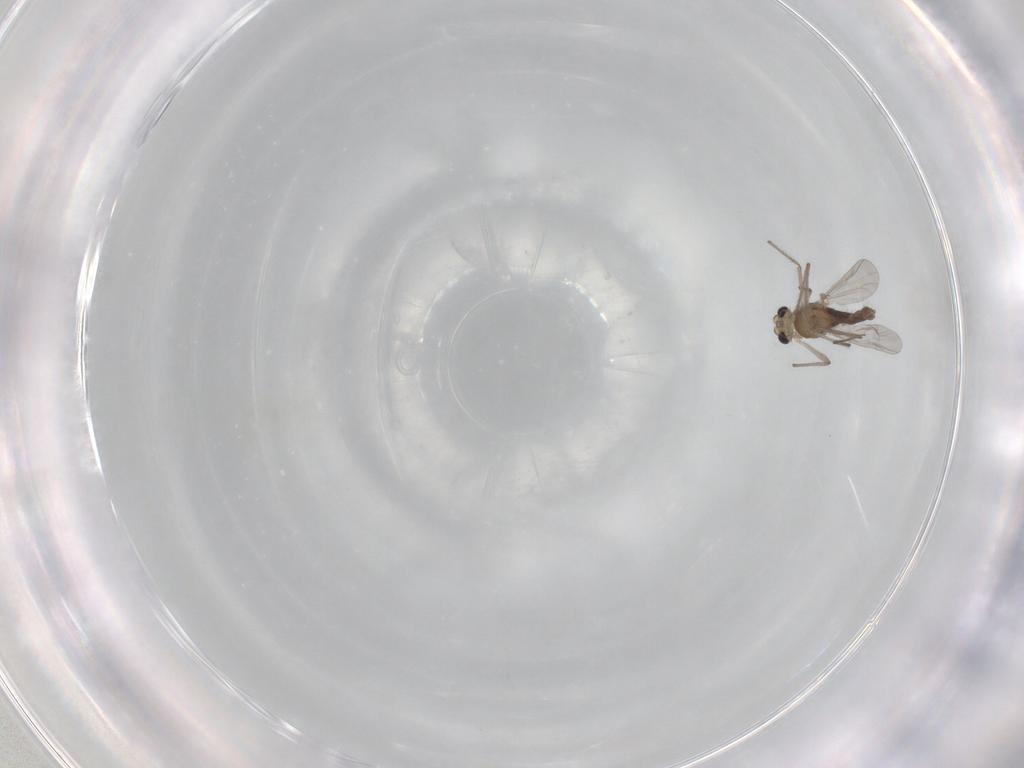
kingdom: Animalia
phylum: Arthropoda
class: Insecta
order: Diptera
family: Chironomidae
